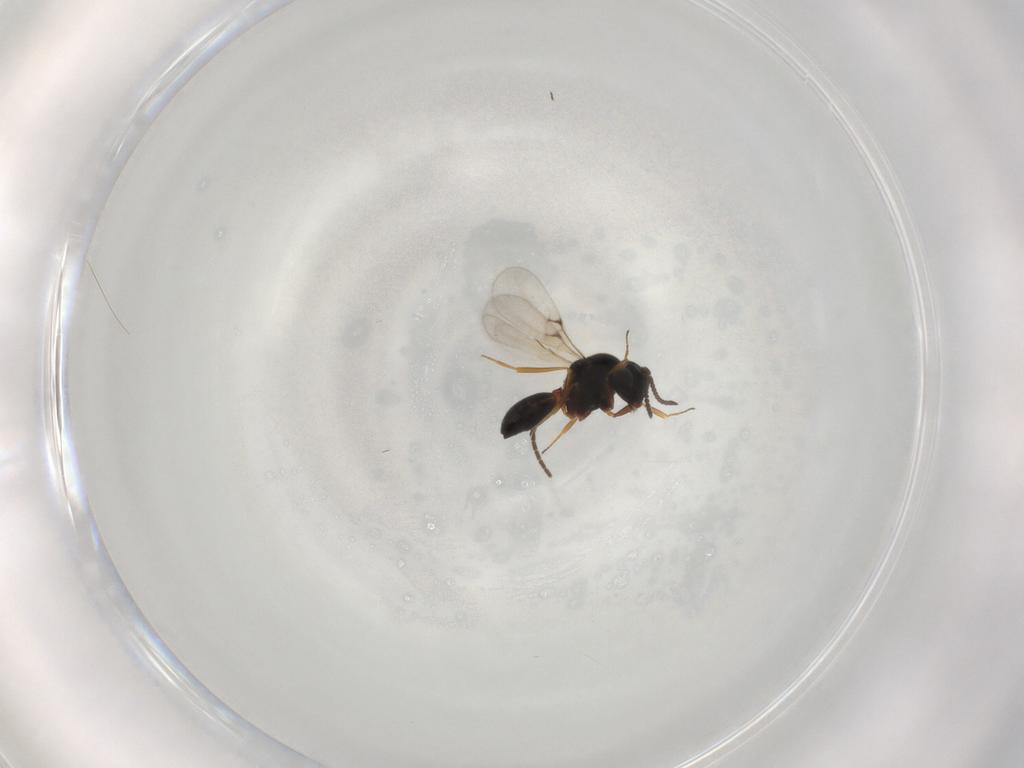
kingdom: Animalia
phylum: Arthropoda
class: Arachnida
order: Araneae
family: Pholcidae
